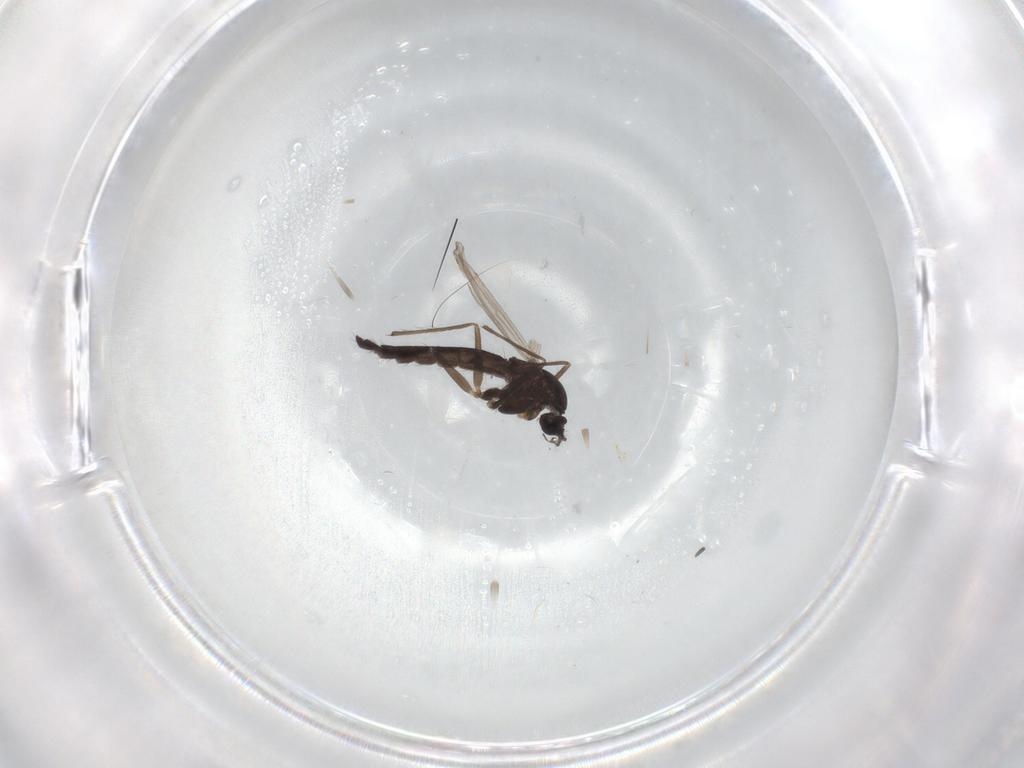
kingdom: Animalia
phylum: Arthropoda
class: Insecta
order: Diptera
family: Chironomidae
